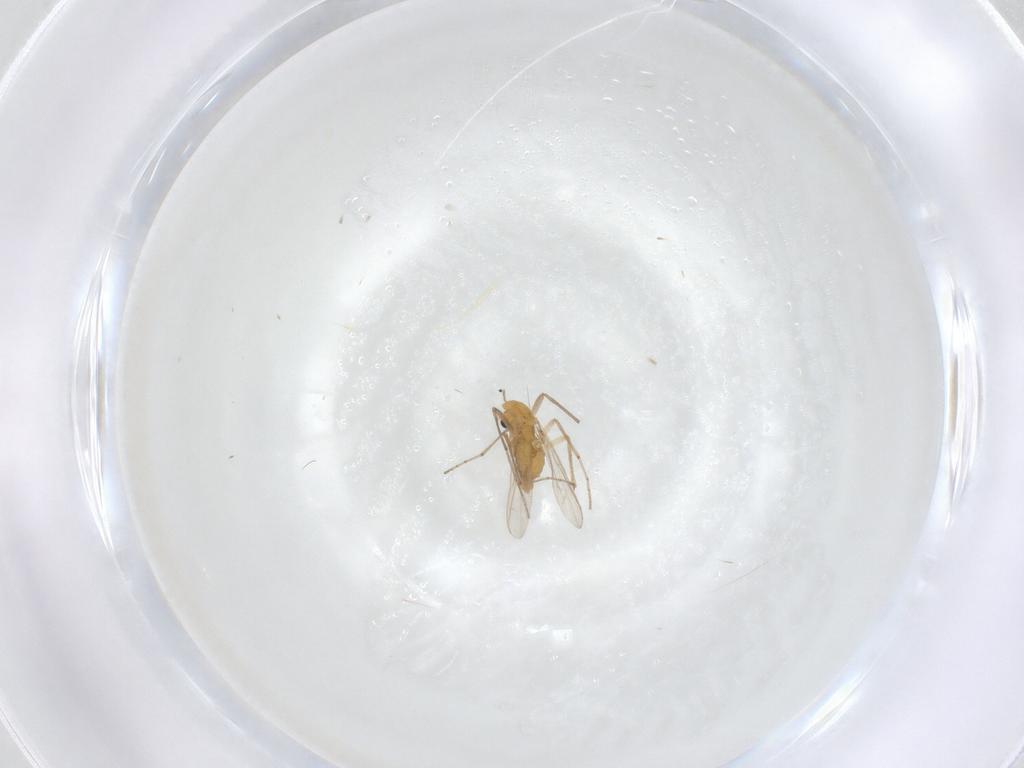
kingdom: Animalia
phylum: Arthropoda
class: Insecta
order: Diptera
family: Chironomidae
